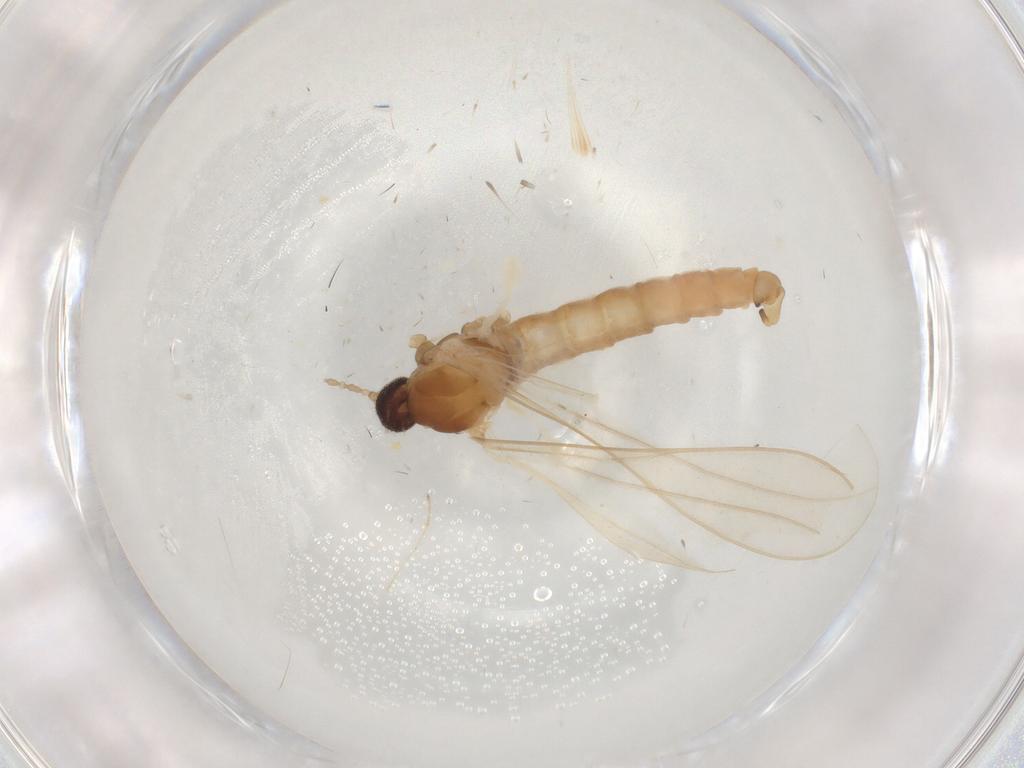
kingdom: Animalia
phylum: Arthropoda
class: Insecta
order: Diptera
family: Cecidomyiidae
